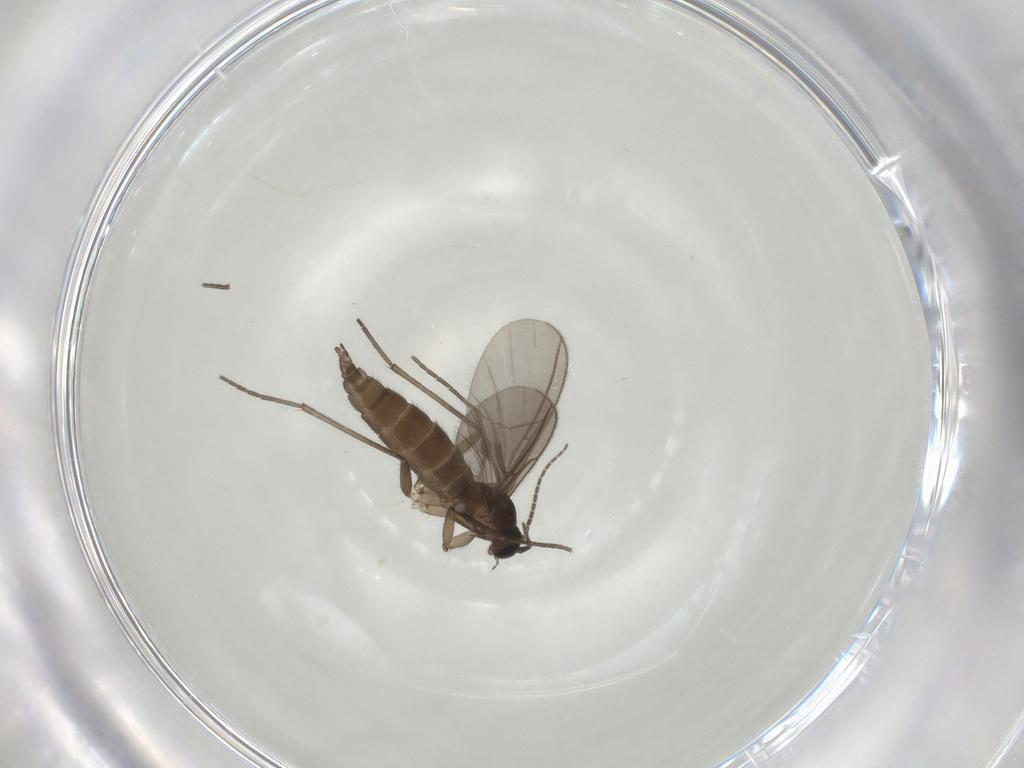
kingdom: Animalia
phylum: Arthropoda
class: Insecta
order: Diptera
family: Sciaridae
